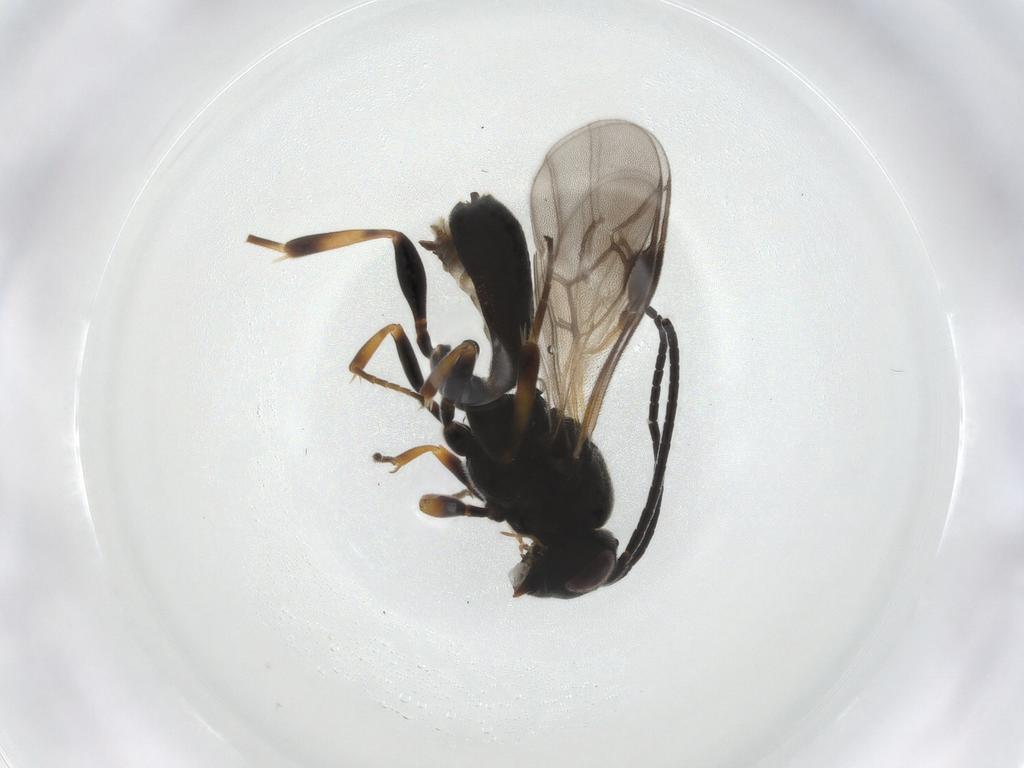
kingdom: Animalia
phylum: Arthropoda
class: Insecta
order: Hymenoptera
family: Braconidae
